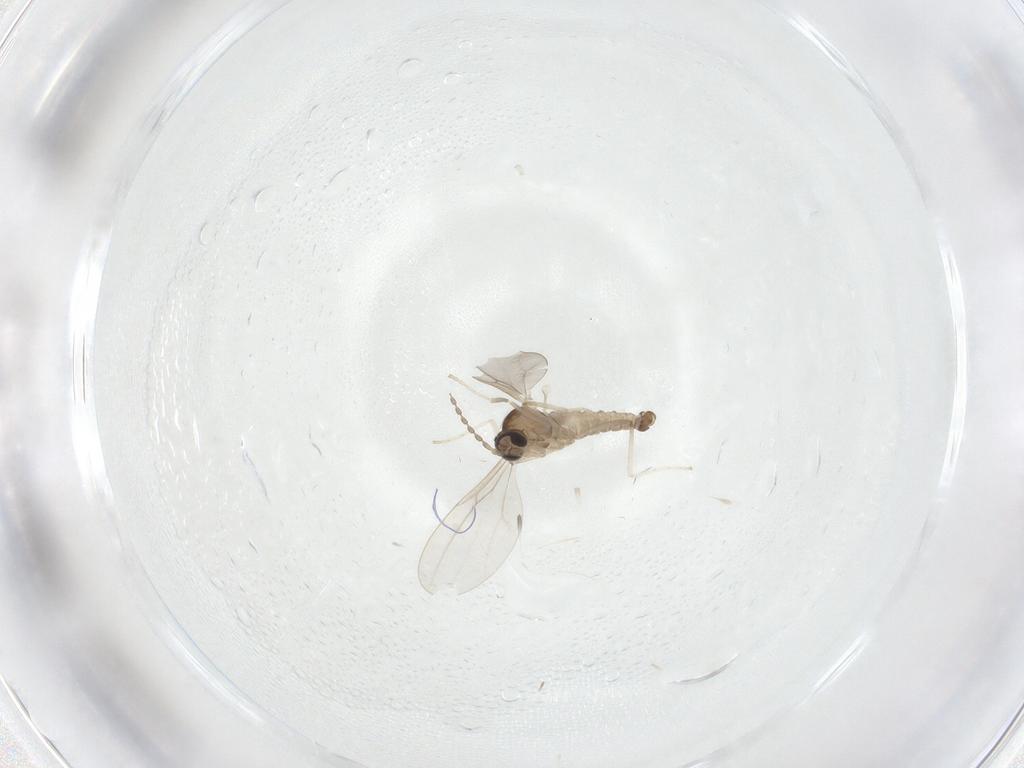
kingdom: Animalia
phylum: Arthropoda
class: Insecta
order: Diptera
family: Cecidomyiidae
